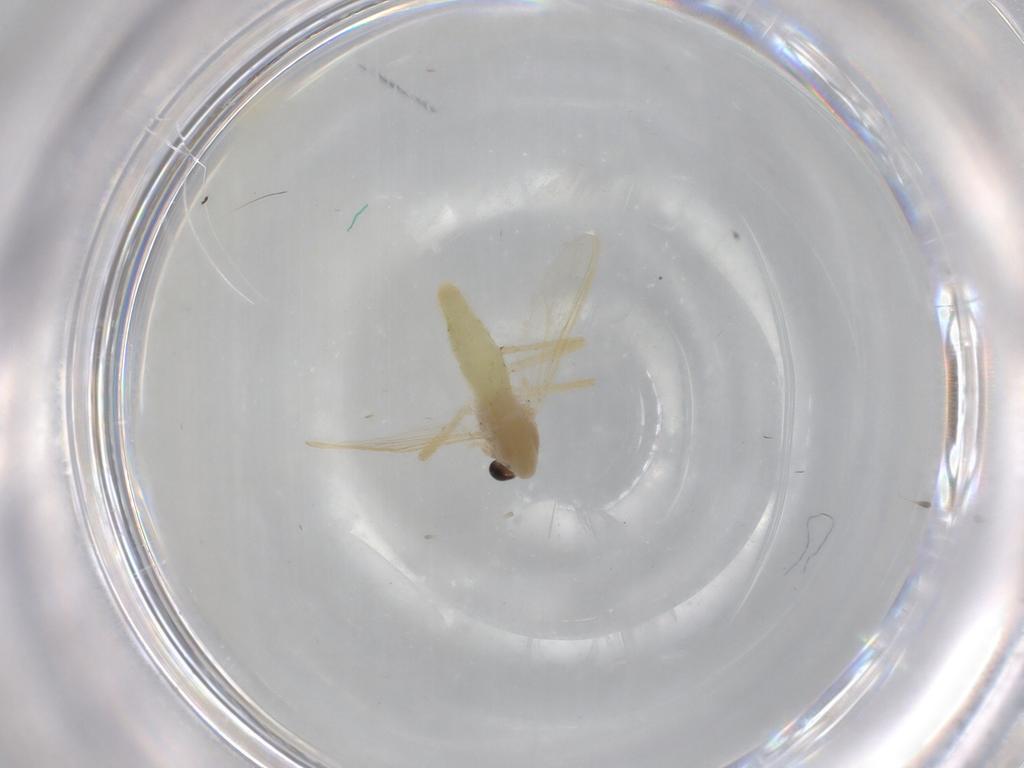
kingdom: Animalia
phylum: Arthropoda
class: Insecta
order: Diptera
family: Chironomidae
